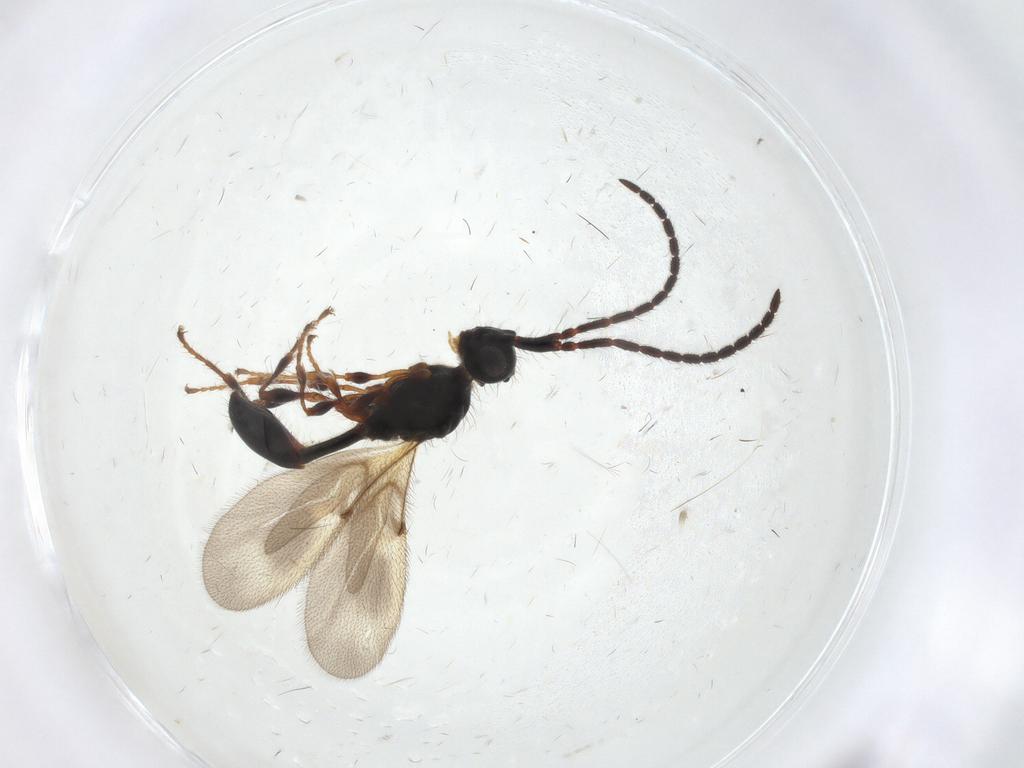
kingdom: Animalia
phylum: Arthropoda
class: Insecta
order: Hymenoptera
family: Diapriidae
